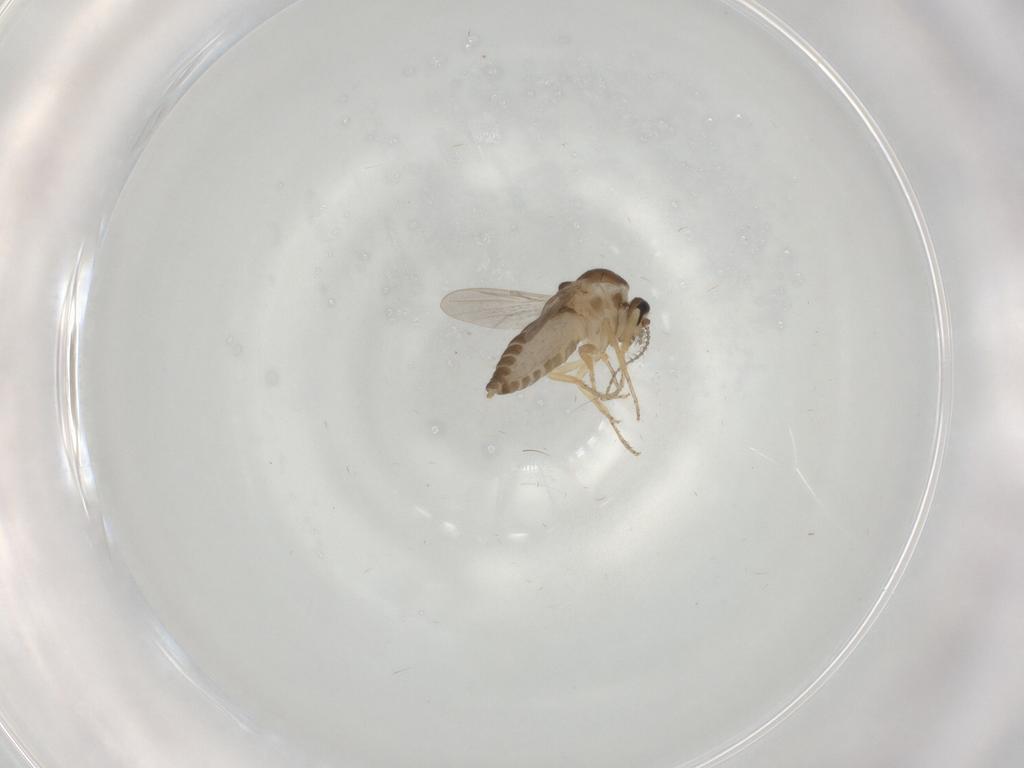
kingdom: Animalia
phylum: Arthropoda
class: Insecta
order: Diptera
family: Ceratopogonidae
